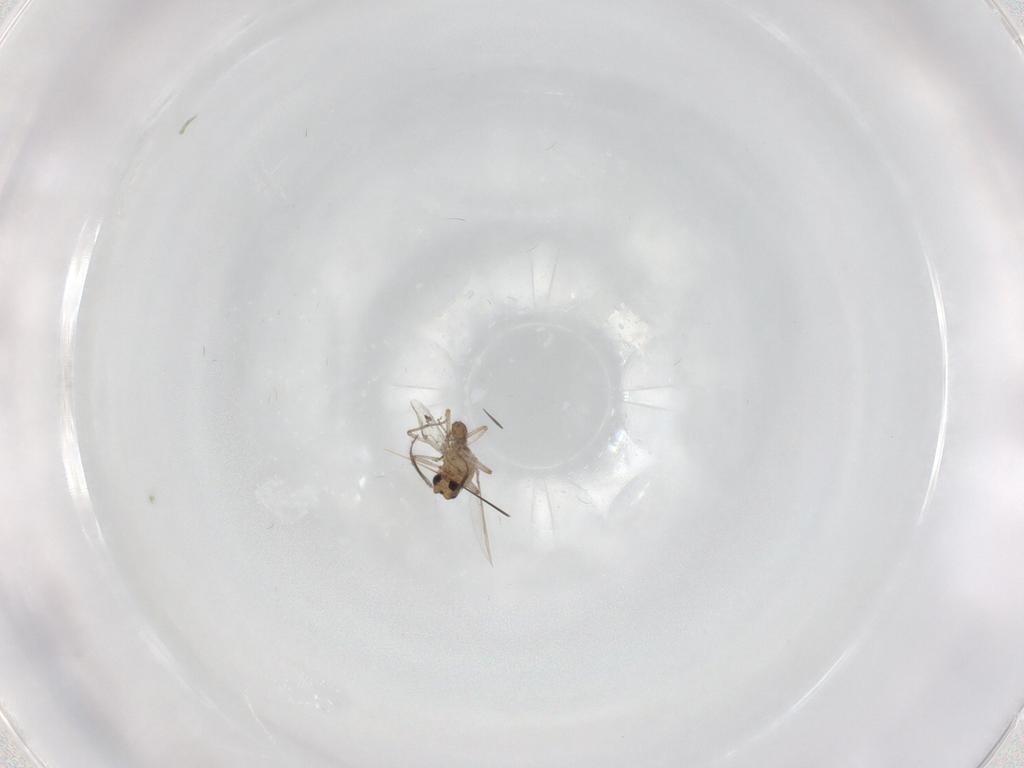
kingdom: Animalia
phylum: Arthropoda
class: Insecta
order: Diptera
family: Ceratopogonidae
